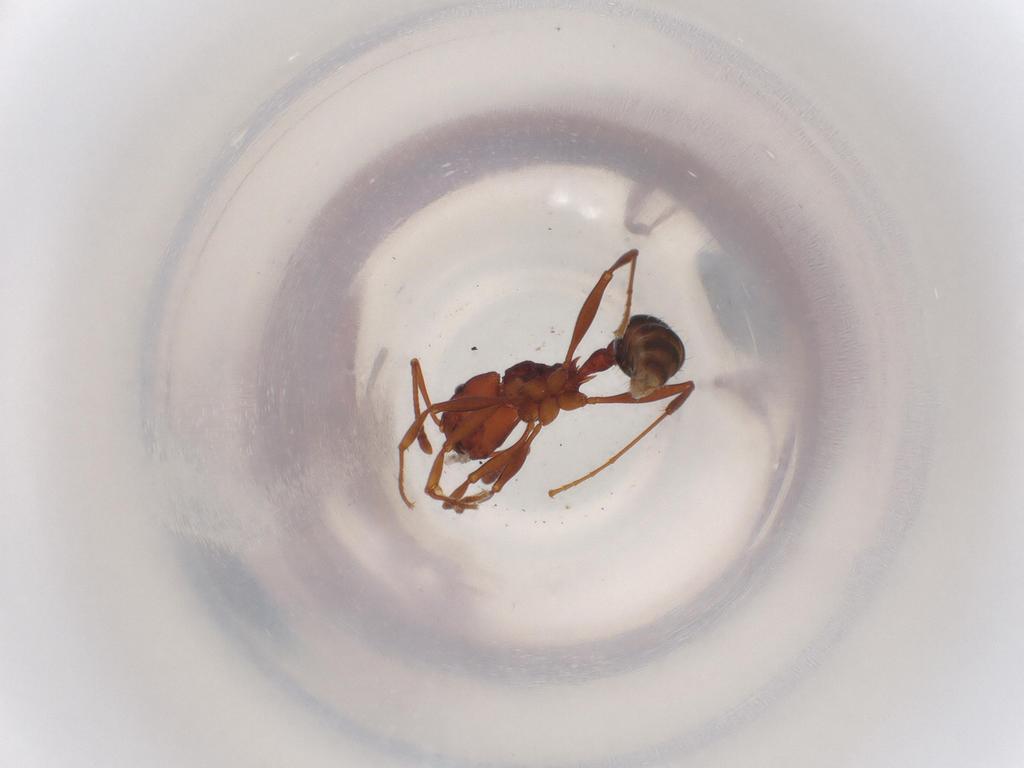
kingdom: Animalia
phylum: Arthropoda
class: Insecta
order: Hymenoptera
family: Formicidae
